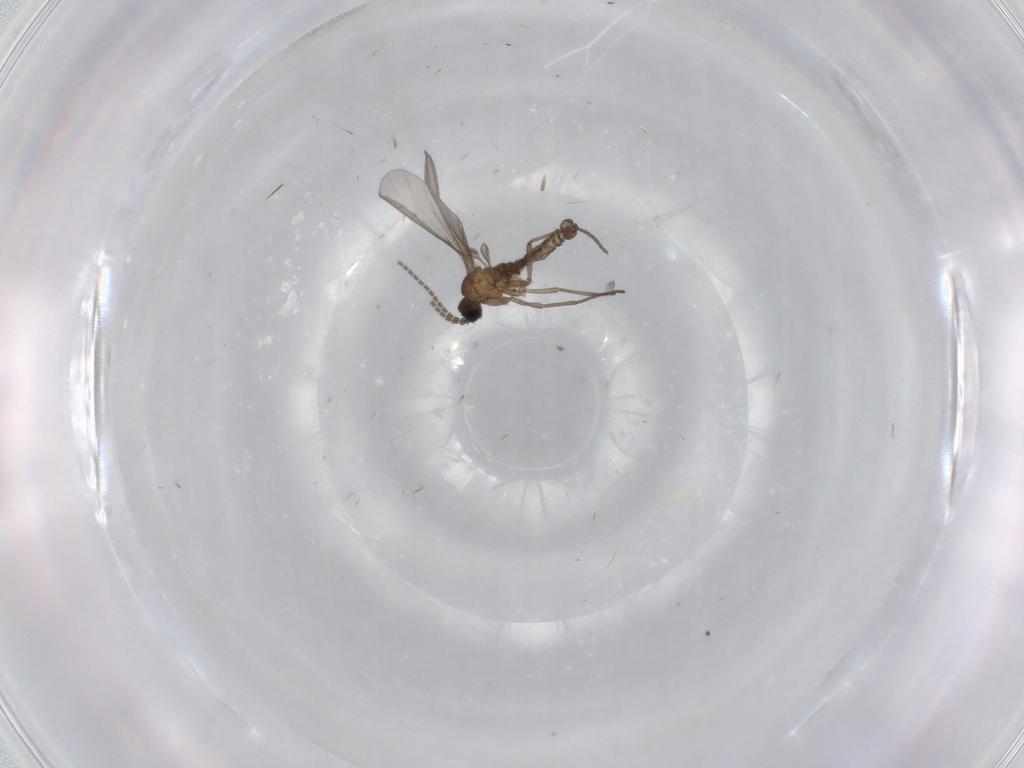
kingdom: Animalia
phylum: Arthropoda
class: Insecta
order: Diptera
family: Sciaridae
